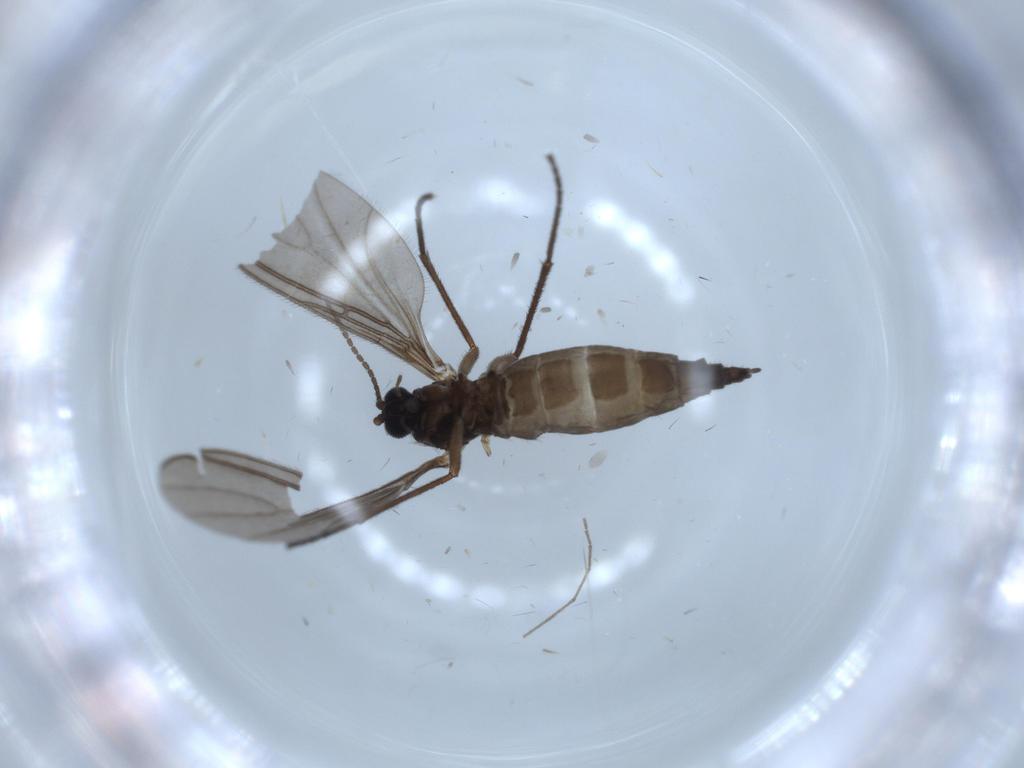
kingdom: Animalia
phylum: Arthropoda
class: Insecta
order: Diptera
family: Sciaridae
